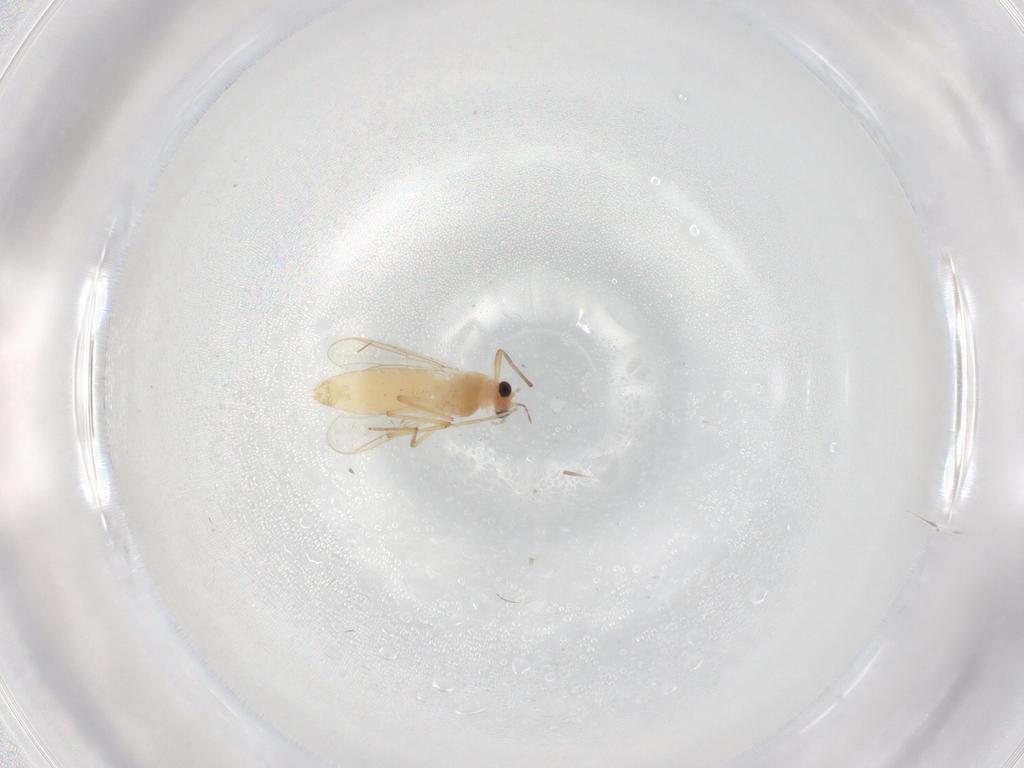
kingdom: Animalia
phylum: Arthropoda
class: Insecta
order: Diptera
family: Chironomidae
